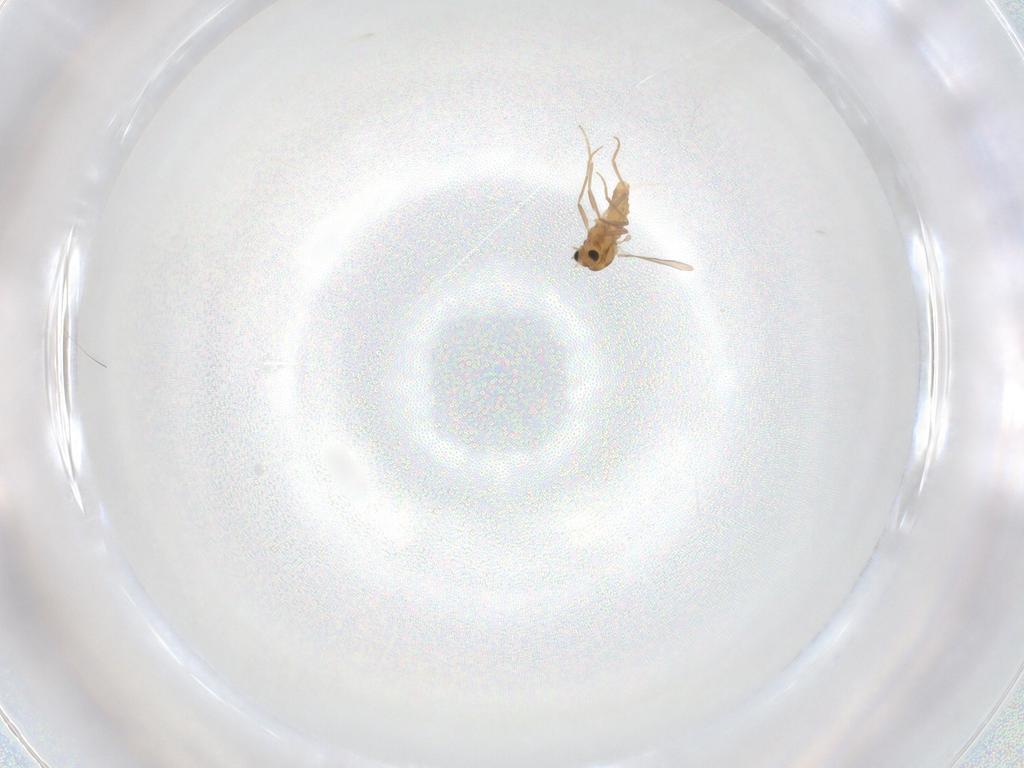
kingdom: Animalia
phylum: Arthropoda
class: Insecta
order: Diptera
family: Chironomidae
